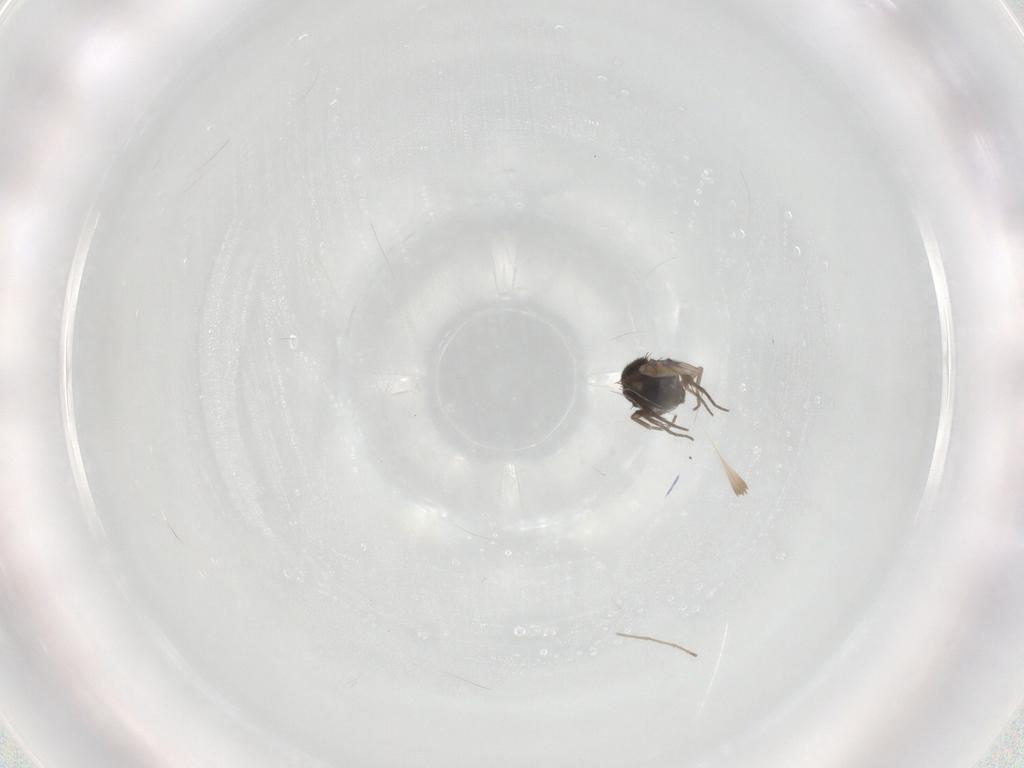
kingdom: Animalia
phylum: Arthropoda
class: Insecta
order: Diptera
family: Phoridae
